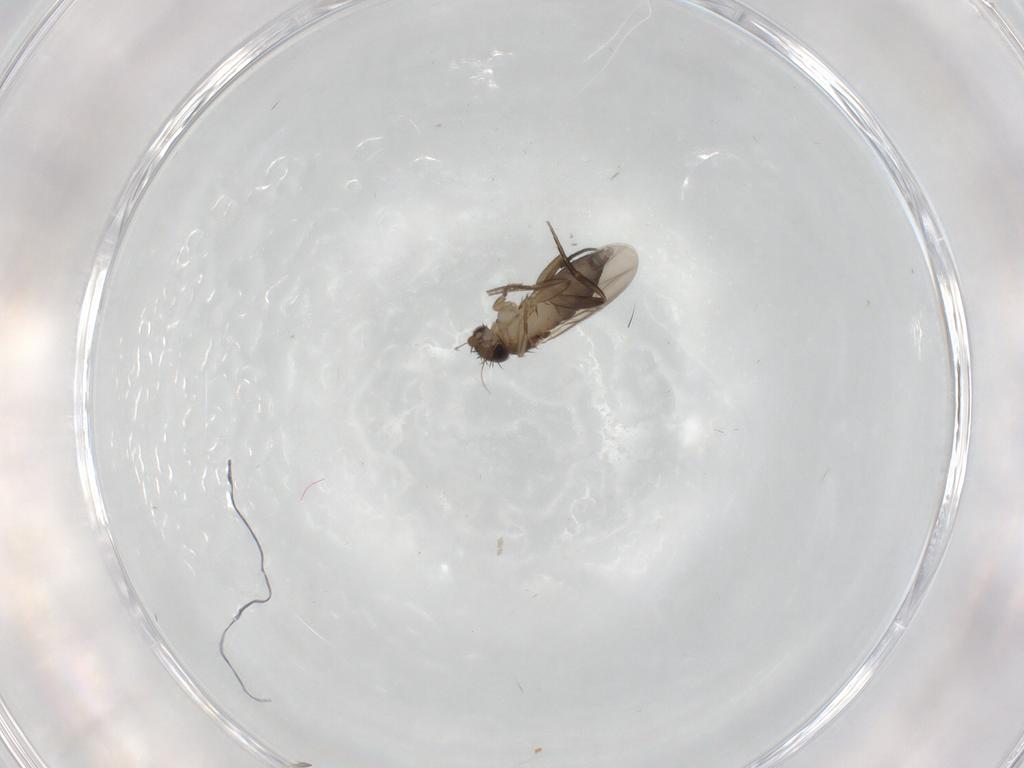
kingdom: Animalia
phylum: Arthropoda
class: Insecta
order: Diptera
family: Phoridae
